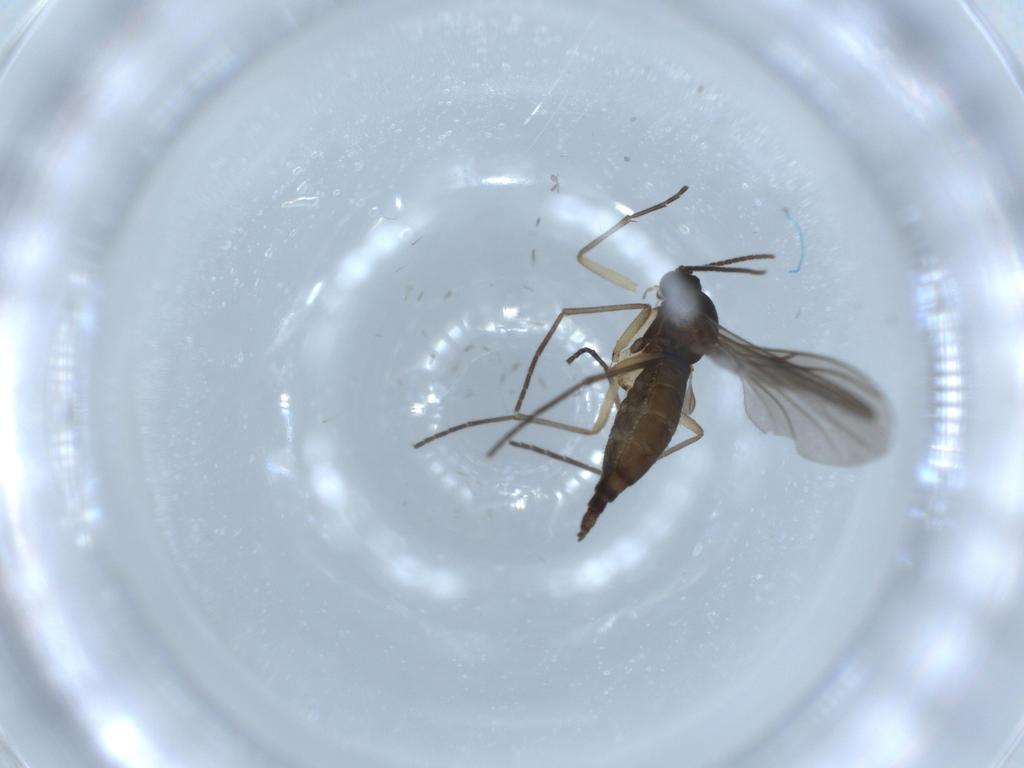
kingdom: Animalia
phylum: Arthropoda
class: Insecta
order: Diptera
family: Sciaridae
